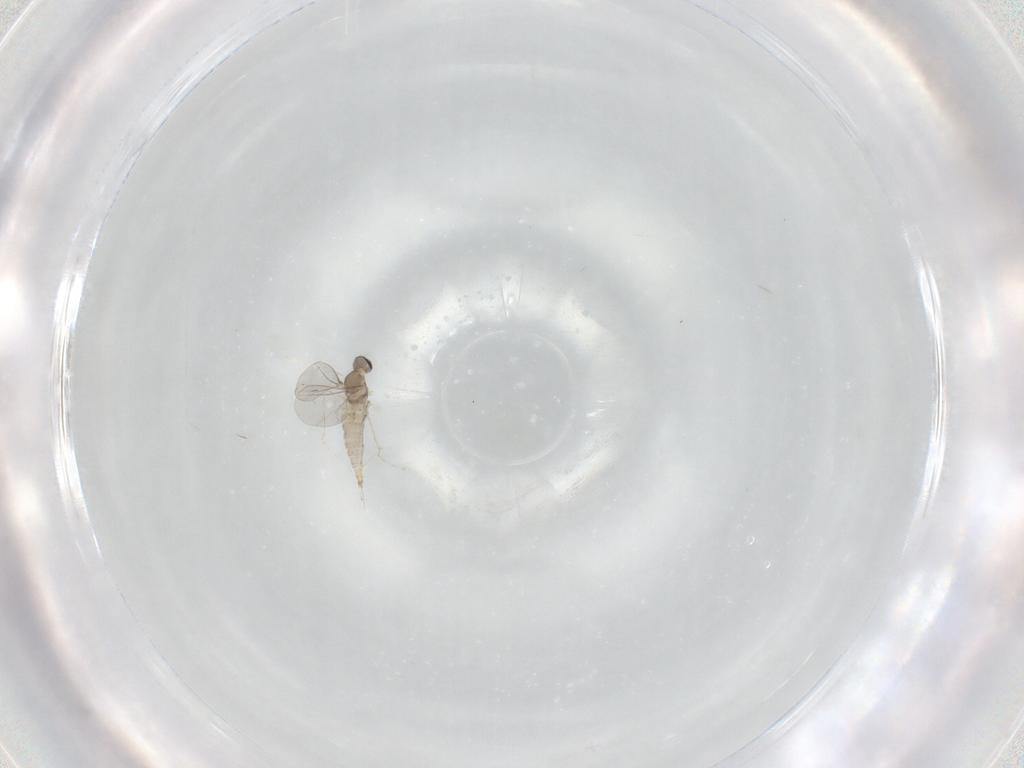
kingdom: Animalia
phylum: Arthropoda
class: Insecta
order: Diptera
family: Cecidomyiidae
